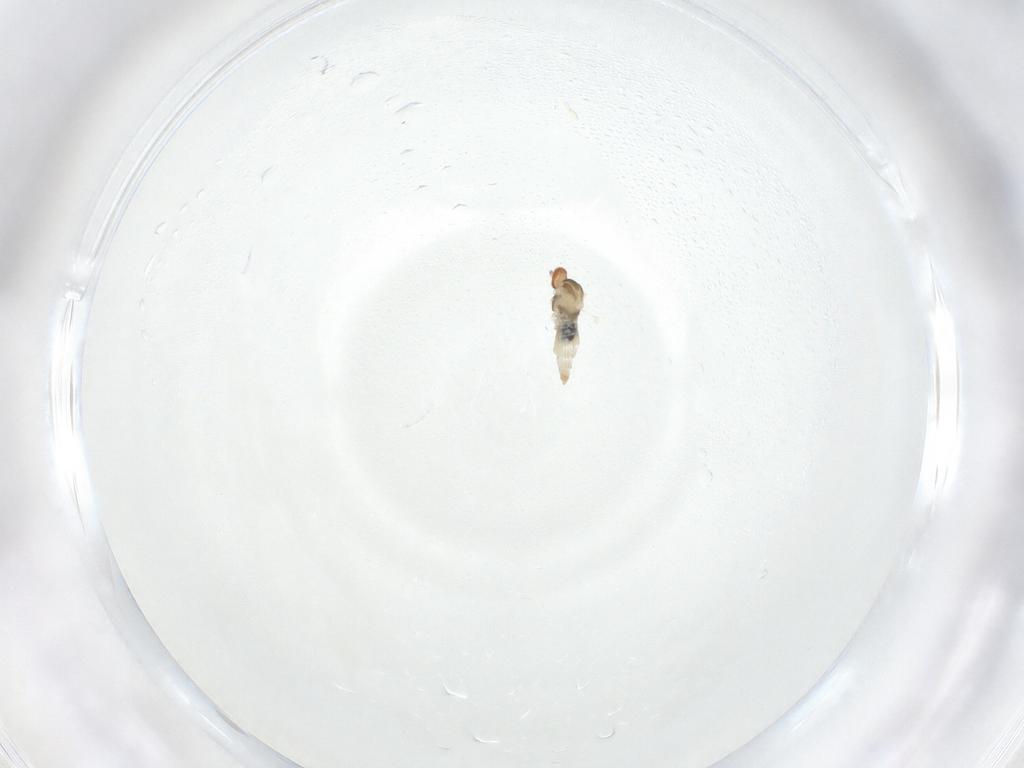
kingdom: Animalia
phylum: Arthropoda
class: Insecta
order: Diptera
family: Cecidomyiidae
